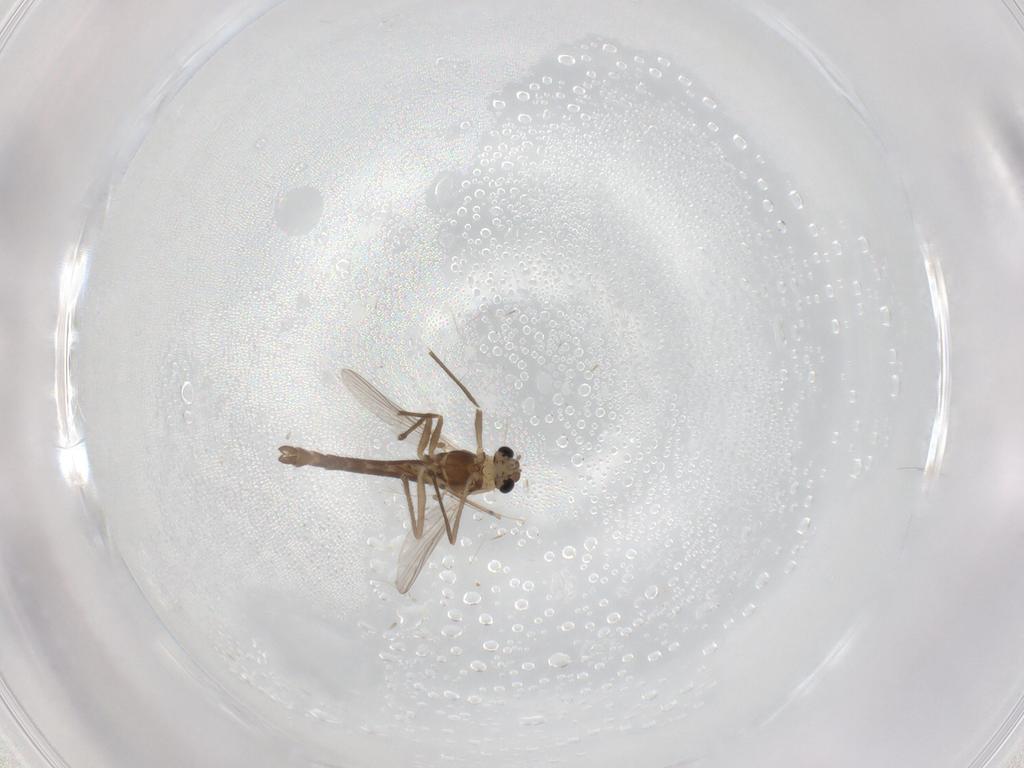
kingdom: Animalia
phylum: Arthropoda
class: Insecta
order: Diptera
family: Chironomidae
